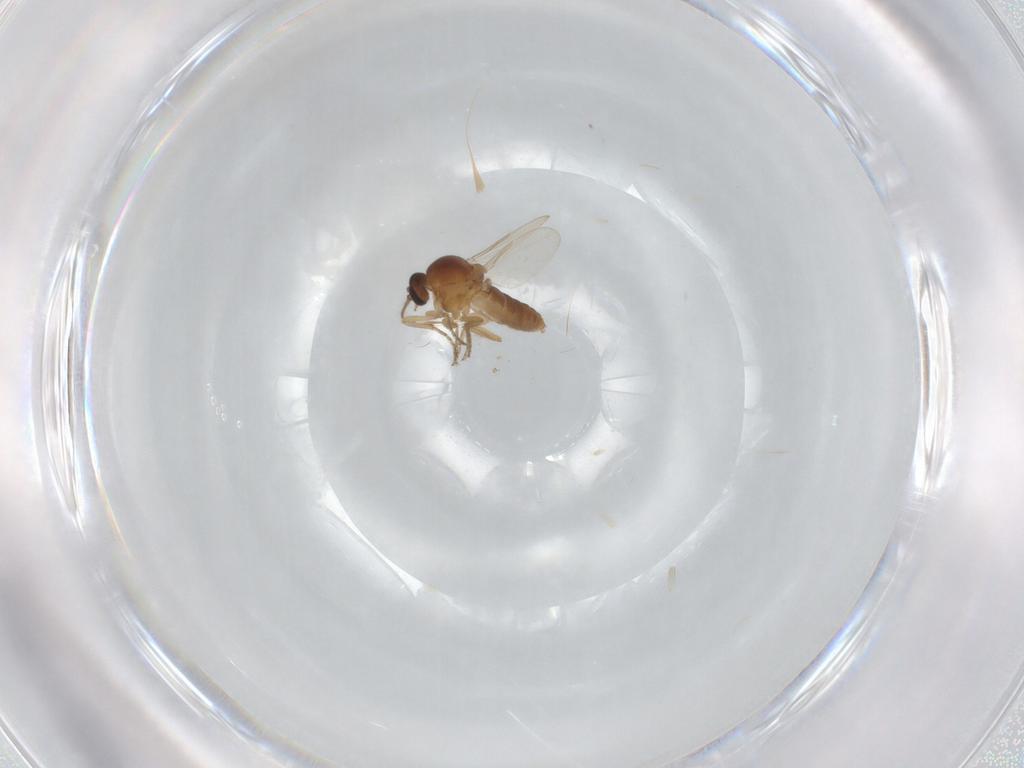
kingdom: Animalia
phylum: Arthropoda
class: Insecta
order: Diptera
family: Ceratopogonidae
